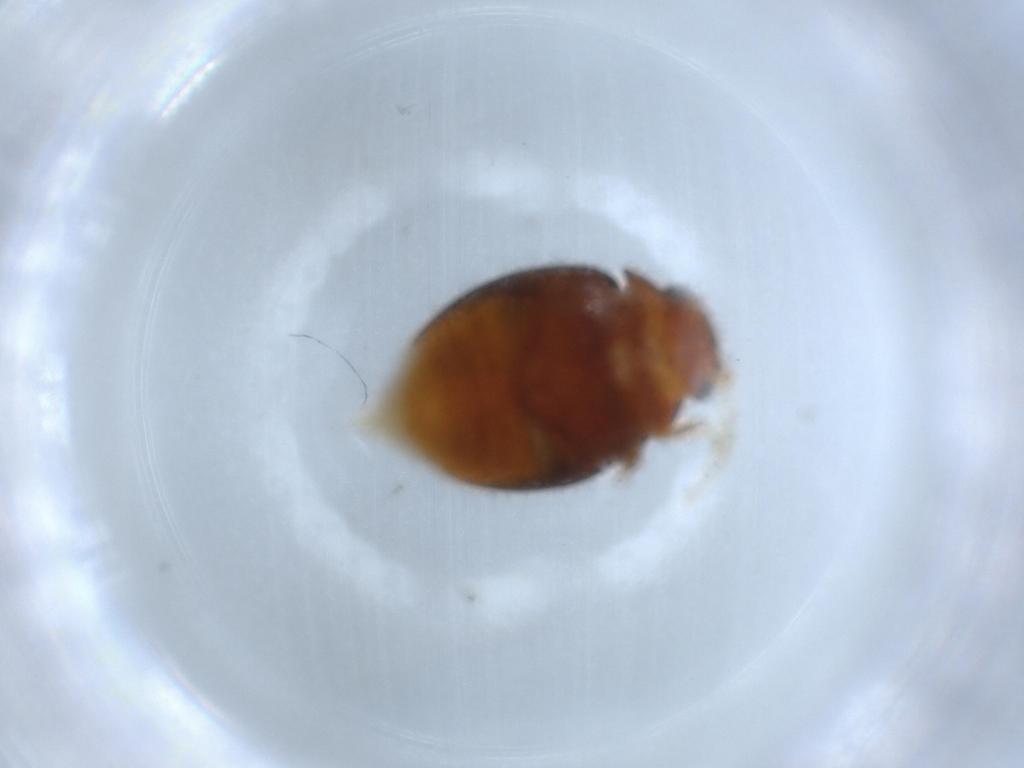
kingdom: Animalia
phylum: Arthropoda
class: Insecta
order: Coleoptera
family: Scirtidae
